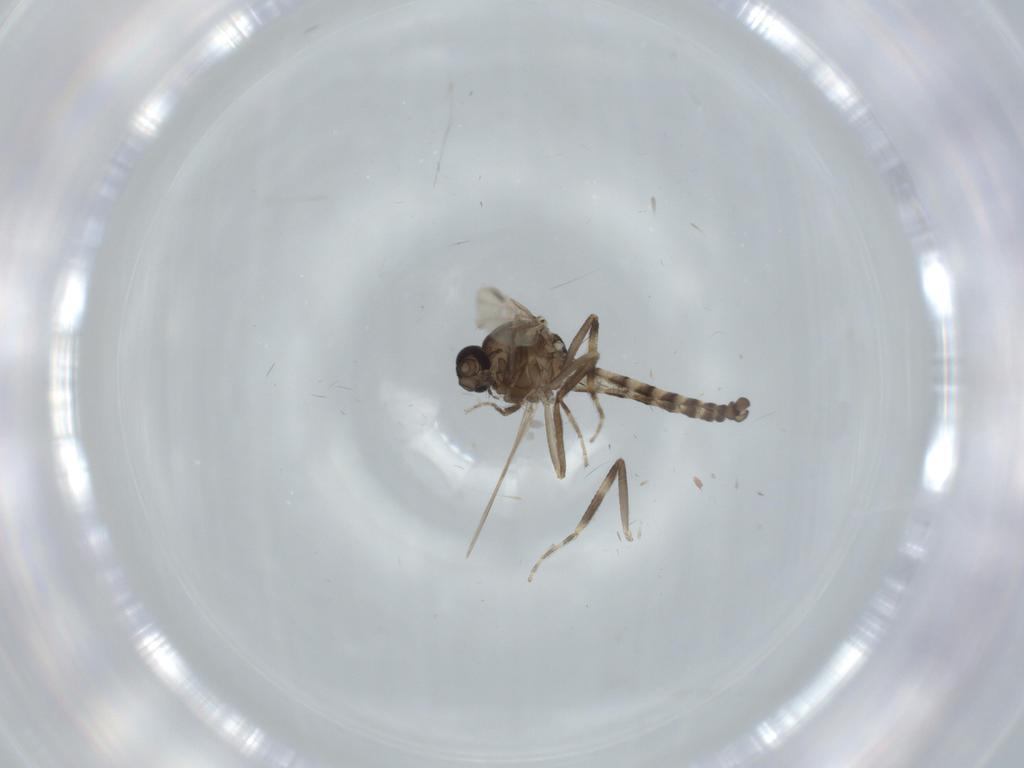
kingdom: Animalia
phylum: Arthropoda
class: Insecta
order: Diptera
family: Ceratopogonidae
